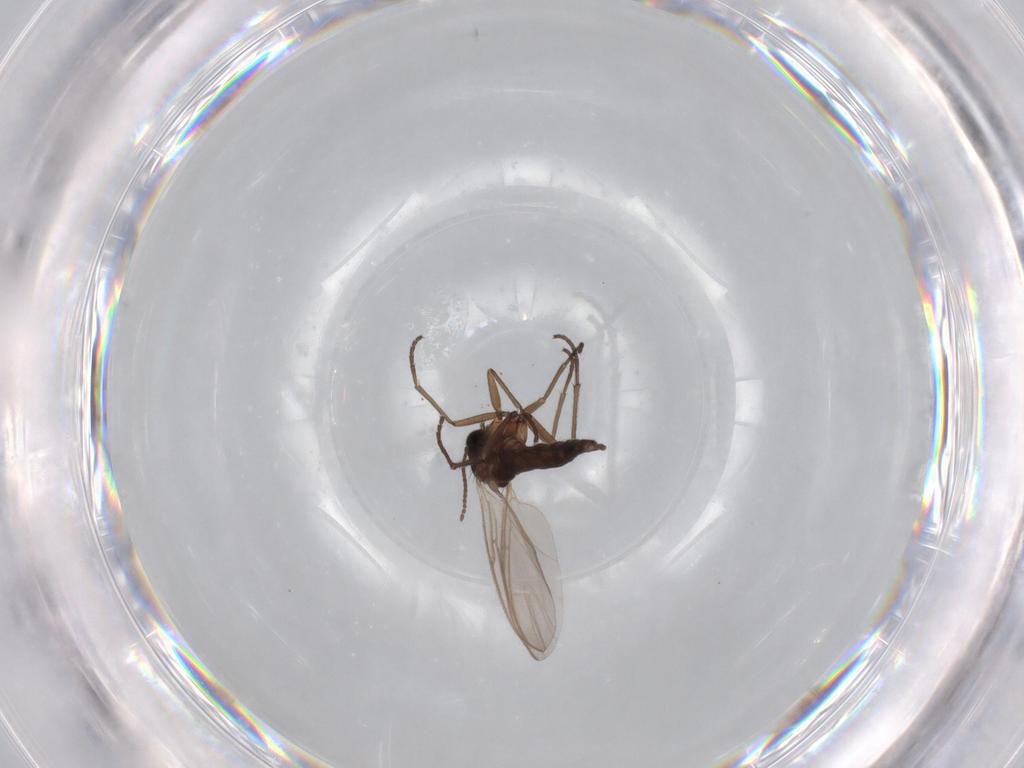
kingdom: Animalia
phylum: Arthropoda
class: Insecta
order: Diptera
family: Sciaridae
